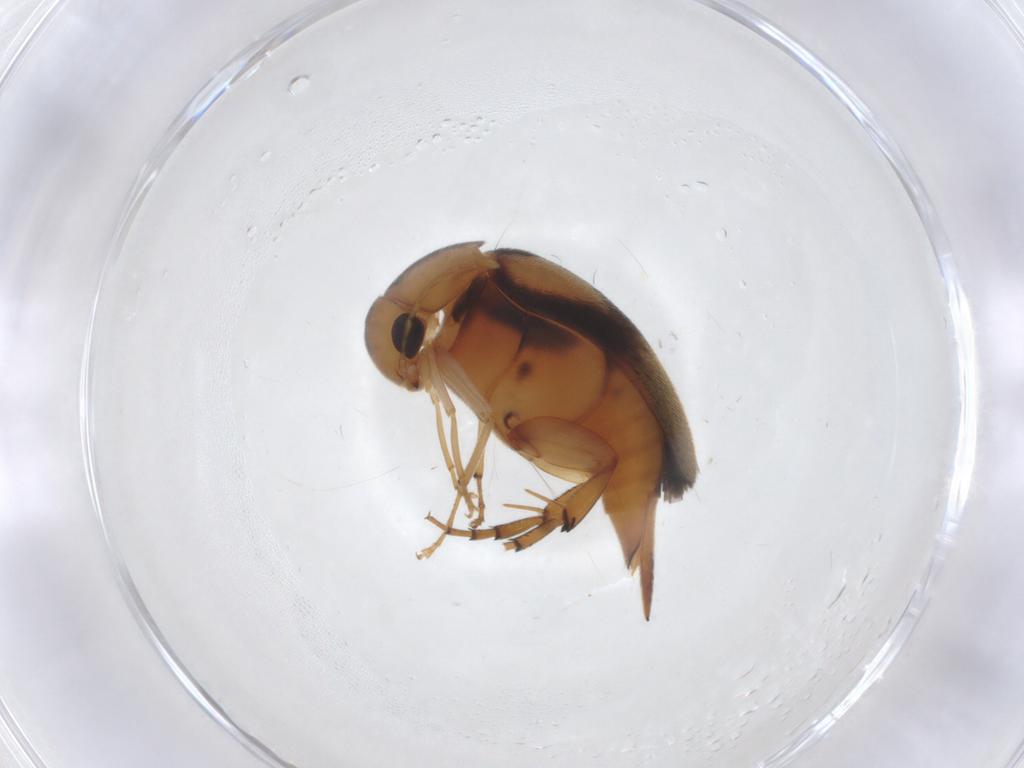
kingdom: Animalia
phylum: Arthropoda
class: Insecta
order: Coleoptera
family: Mordellidae
